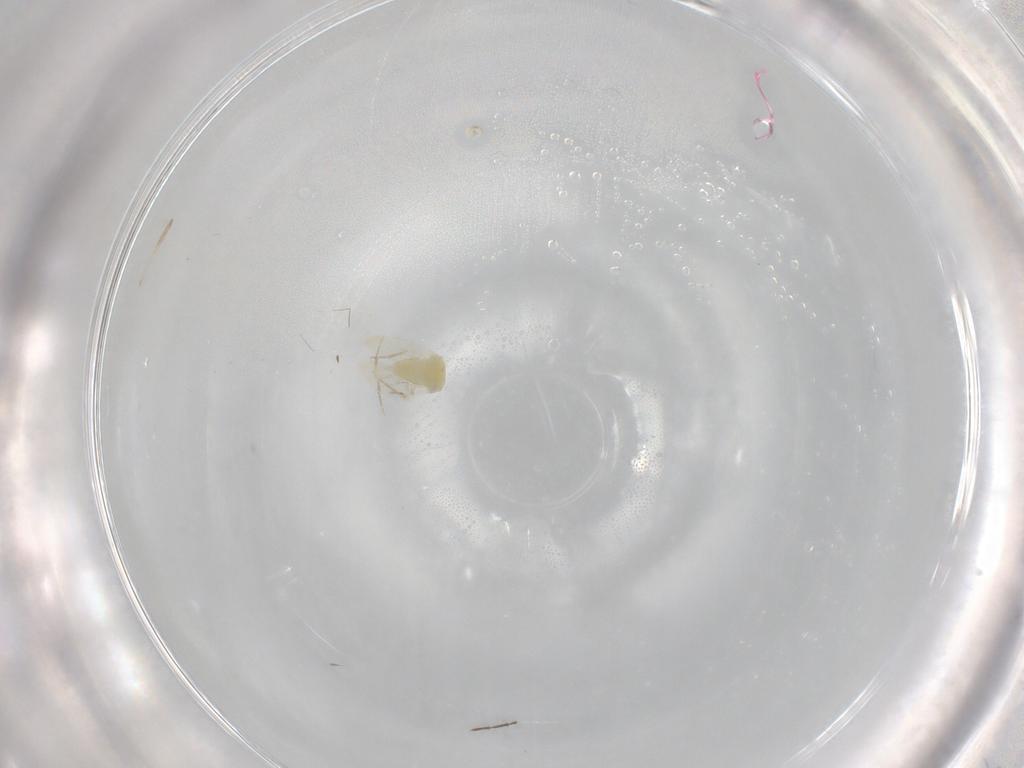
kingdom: Animalia
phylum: Arthropoda
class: Insecta
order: Hemiptera
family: Aleyrodidae
